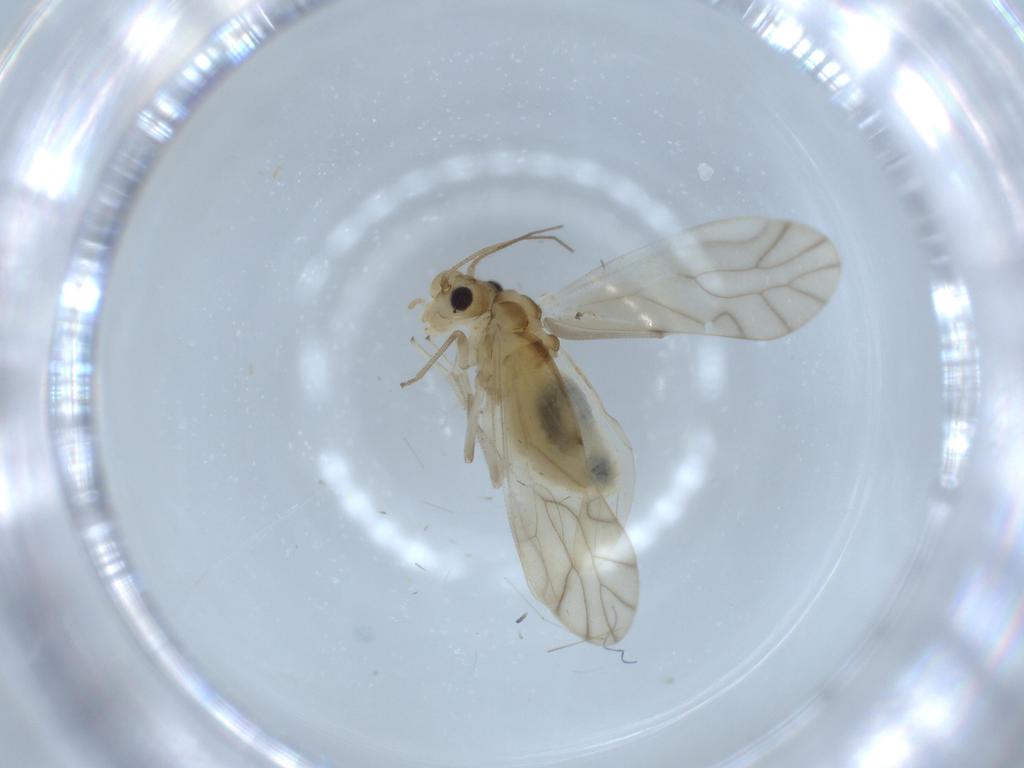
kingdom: Animalia
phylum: Arthropoda
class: Insecta
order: Psocodea
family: Caeciliusidae
